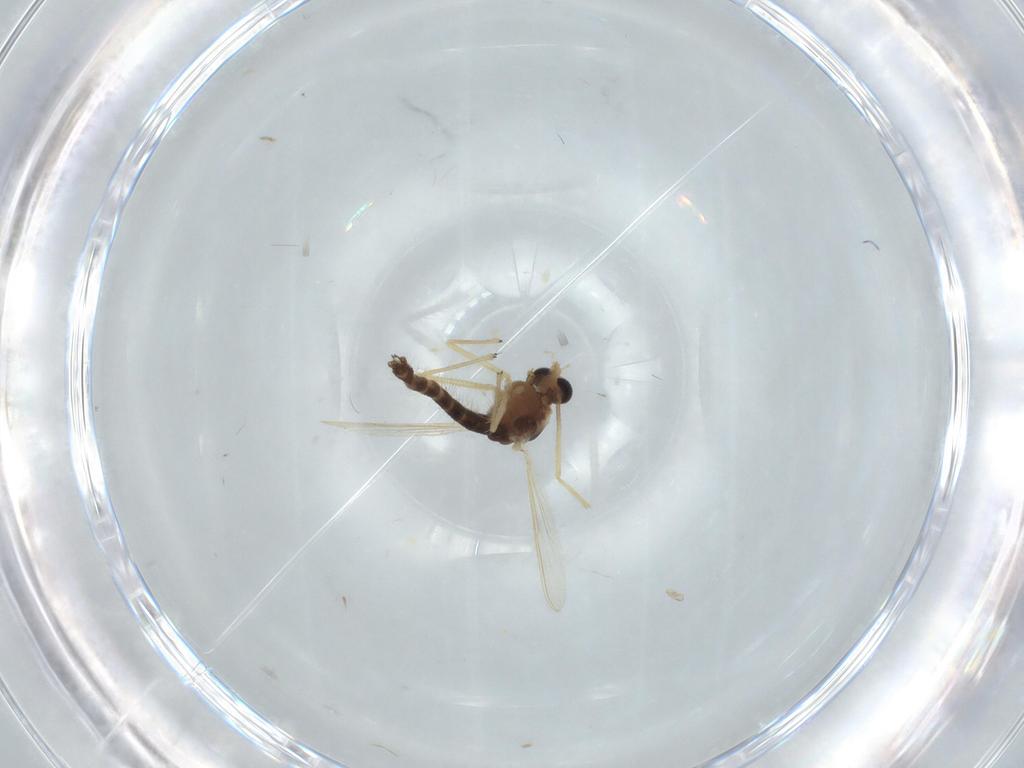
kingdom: Animalia
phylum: Arthropoda
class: Insecta
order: Diptera
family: Chironomidae
